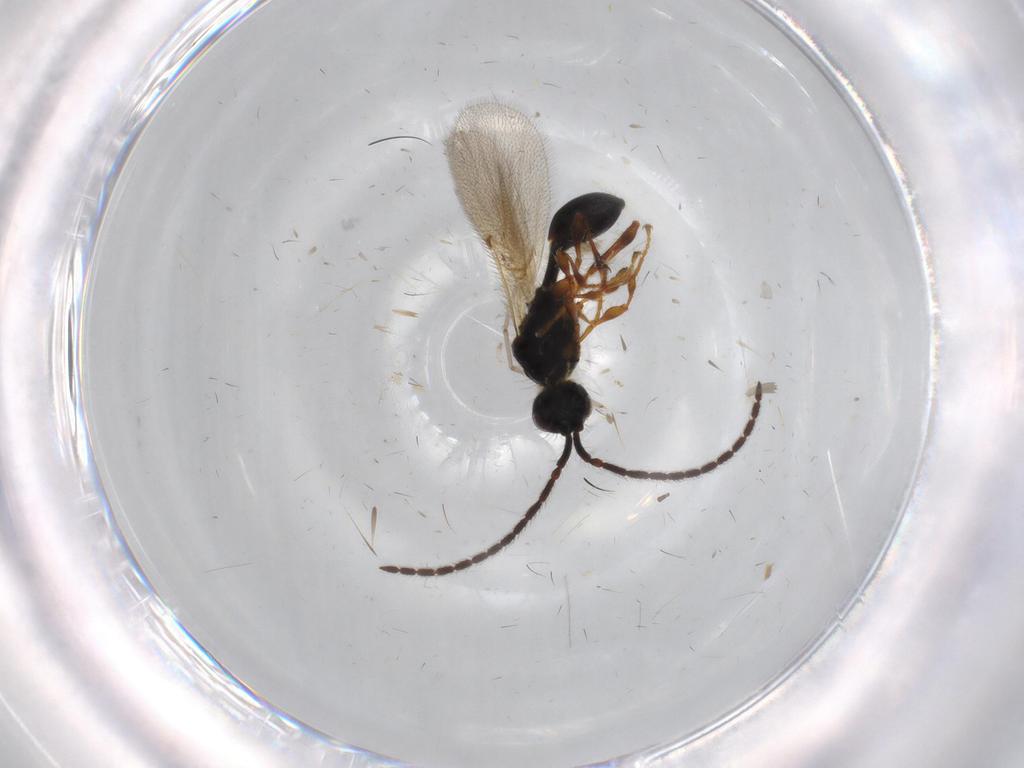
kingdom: Animalia
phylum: Arthropoda
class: Insecta
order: Hymenoptera
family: Diapriidae
